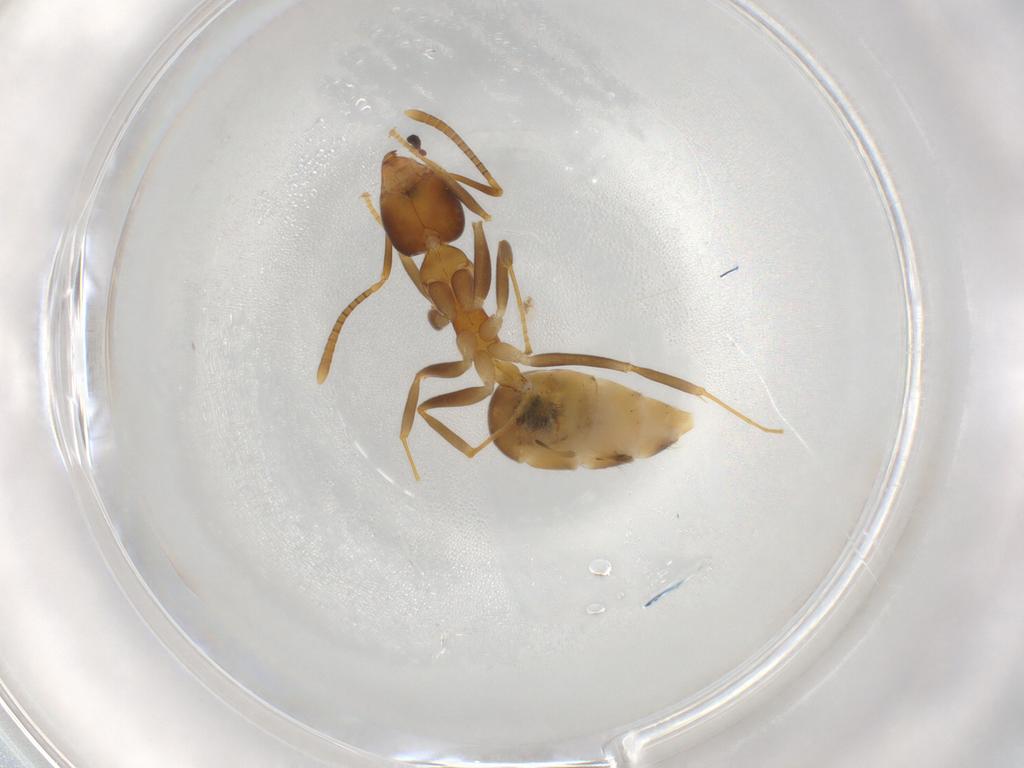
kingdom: Animalia
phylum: Arthropoda
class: Insecta
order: Hymenoptera
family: Formicidae
